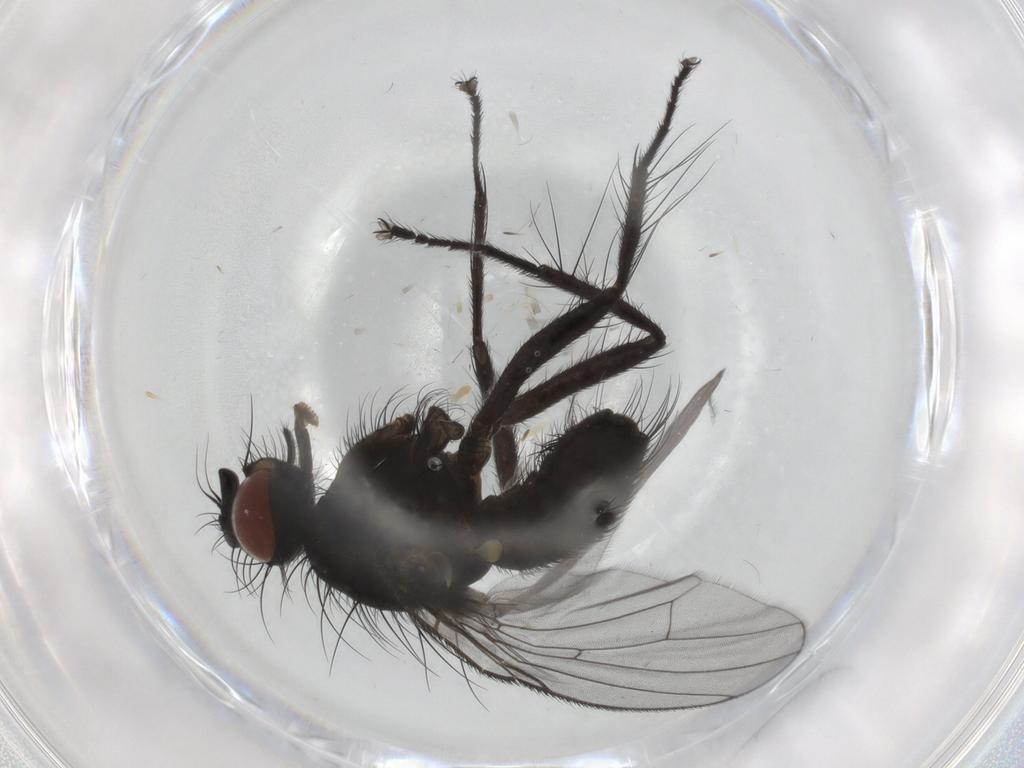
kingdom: Animalia
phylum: Arthropoda
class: Insecta
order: Diptera
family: Muscidae
